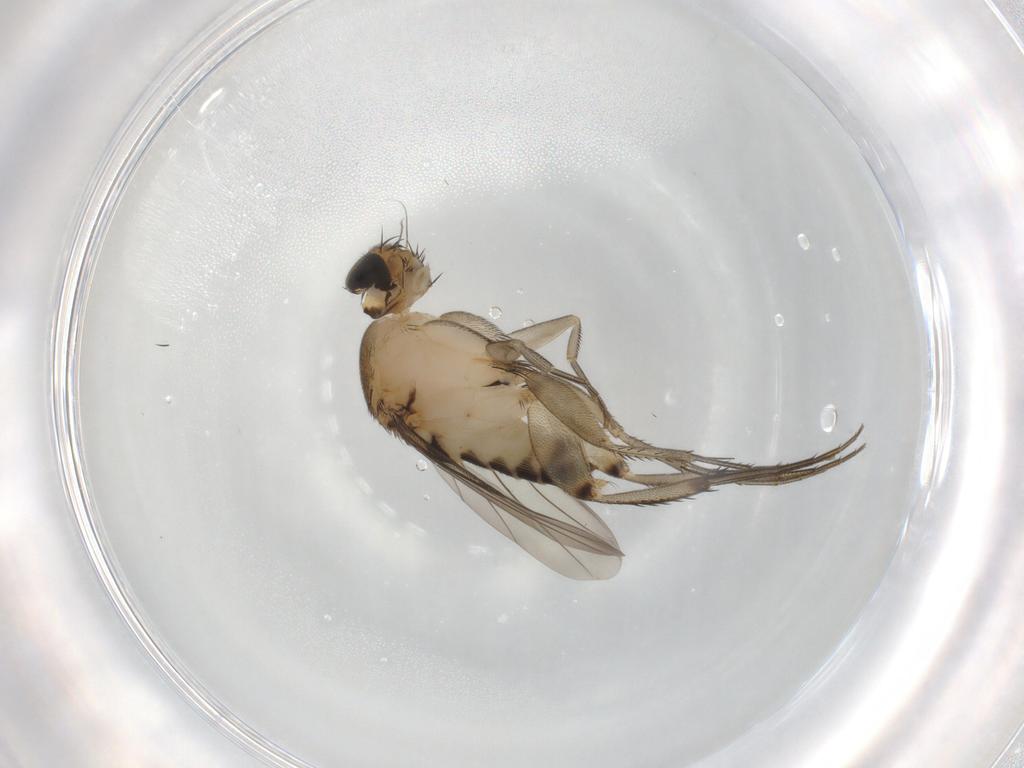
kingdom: Animalia
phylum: Arthropoda
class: Insecta
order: Diptera
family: Phoridae
